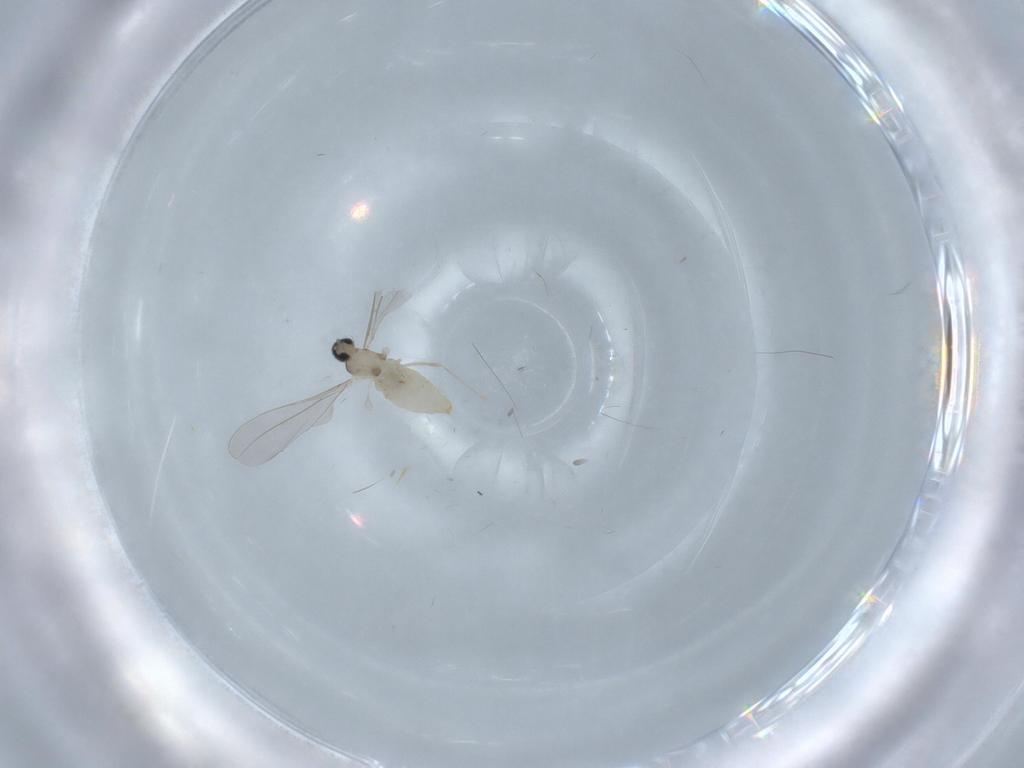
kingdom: Animalia
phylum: Arthropoda
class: Insecta
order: Diptera
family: Cecidomyiidae
